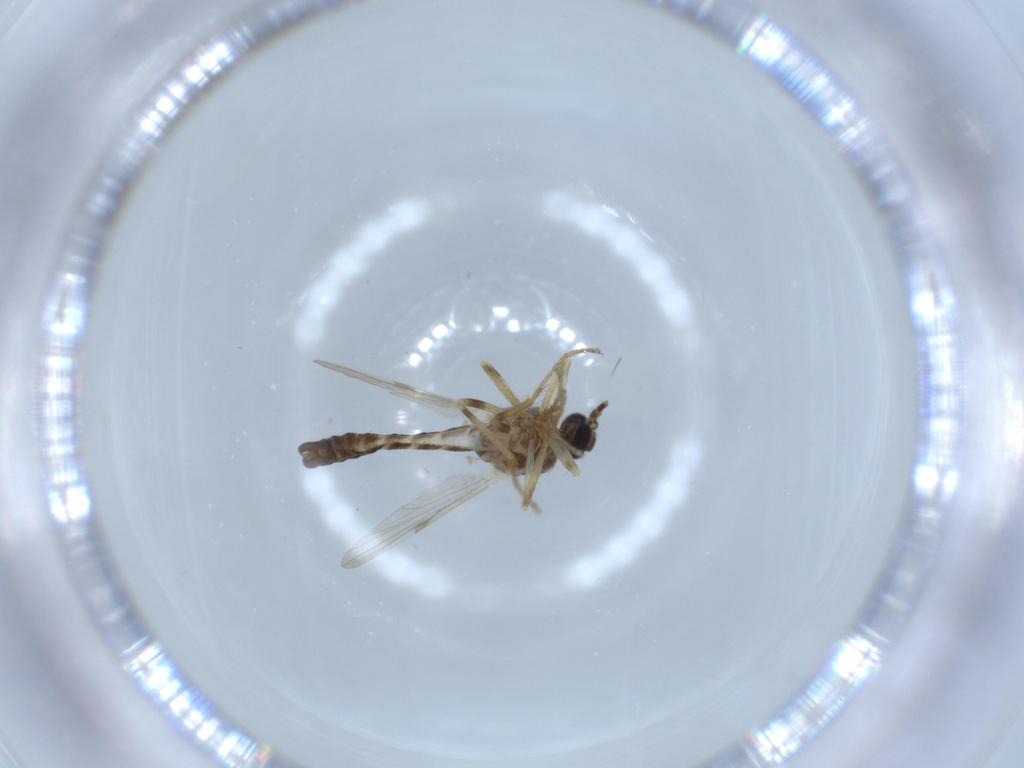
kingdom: Animalia
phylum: Arthropoda
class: Insecta
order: Diptera
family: Ceratopogonidae
